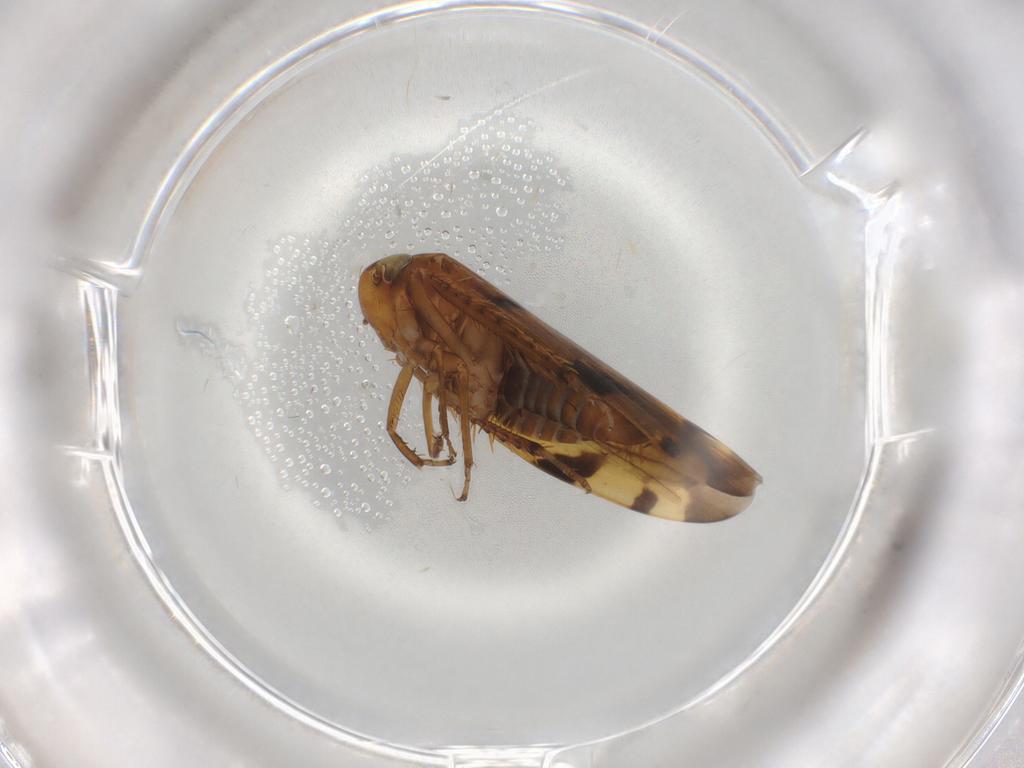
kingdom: Animalia
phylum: Arthropoda
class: Insecta
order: Hemiptera
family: Cicadellidae
